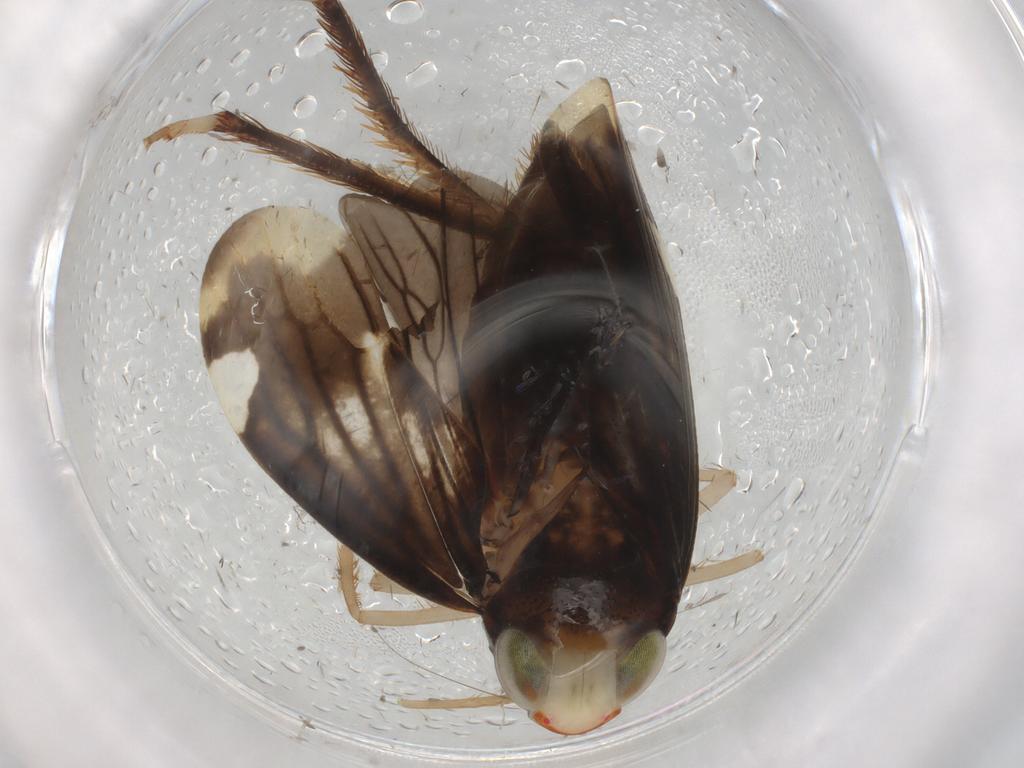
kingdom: Animalia
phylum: Arthropoda
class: Insecta
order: Hemiptera
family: Cicadellidae
